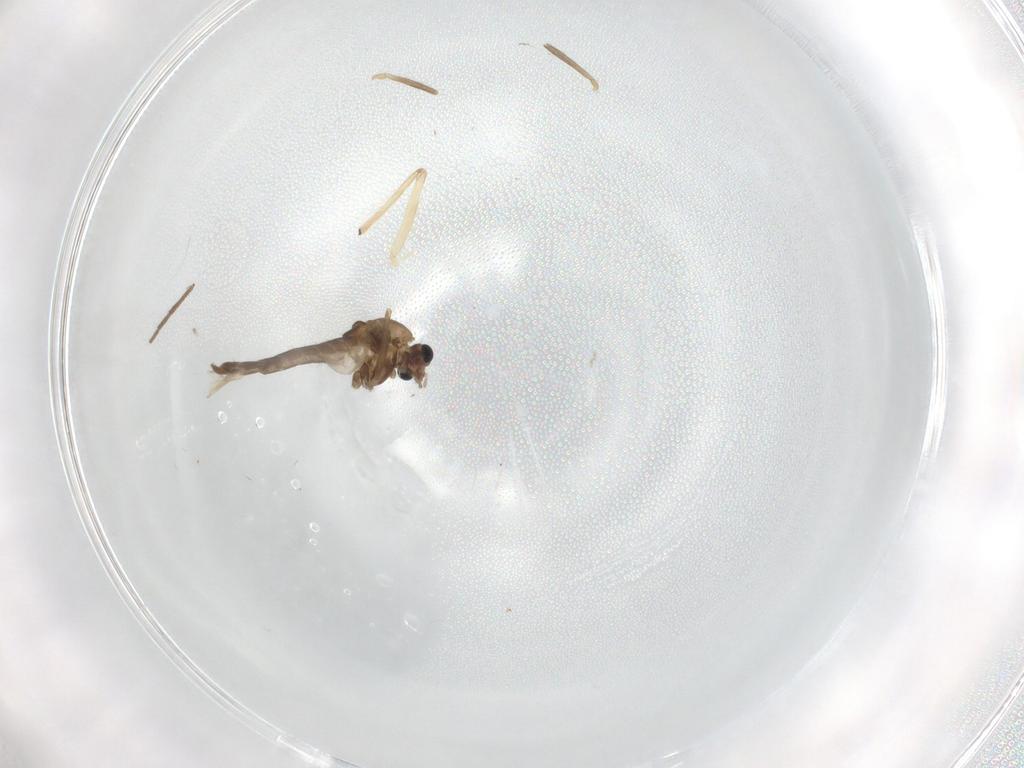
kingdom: Animalia
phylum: Arthropoda
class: Insecta
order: Diptera
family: Chironomidae
